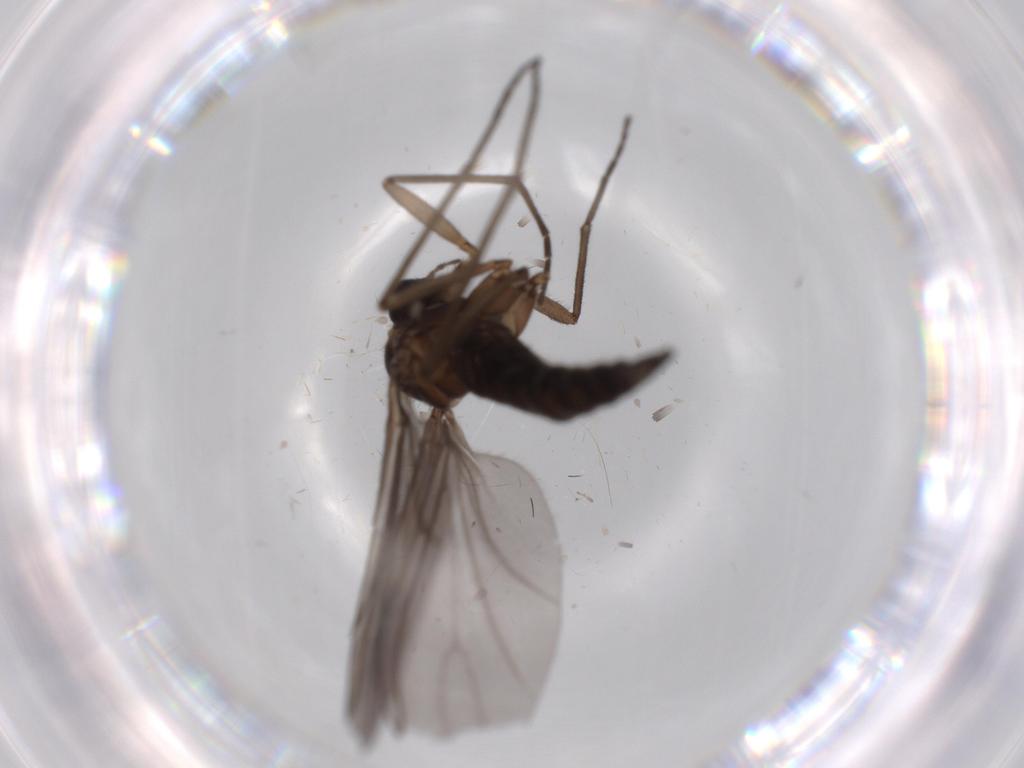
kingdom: Animalia
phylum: Arthropoda
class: Insecta
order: Diptera
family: Sciaridae
